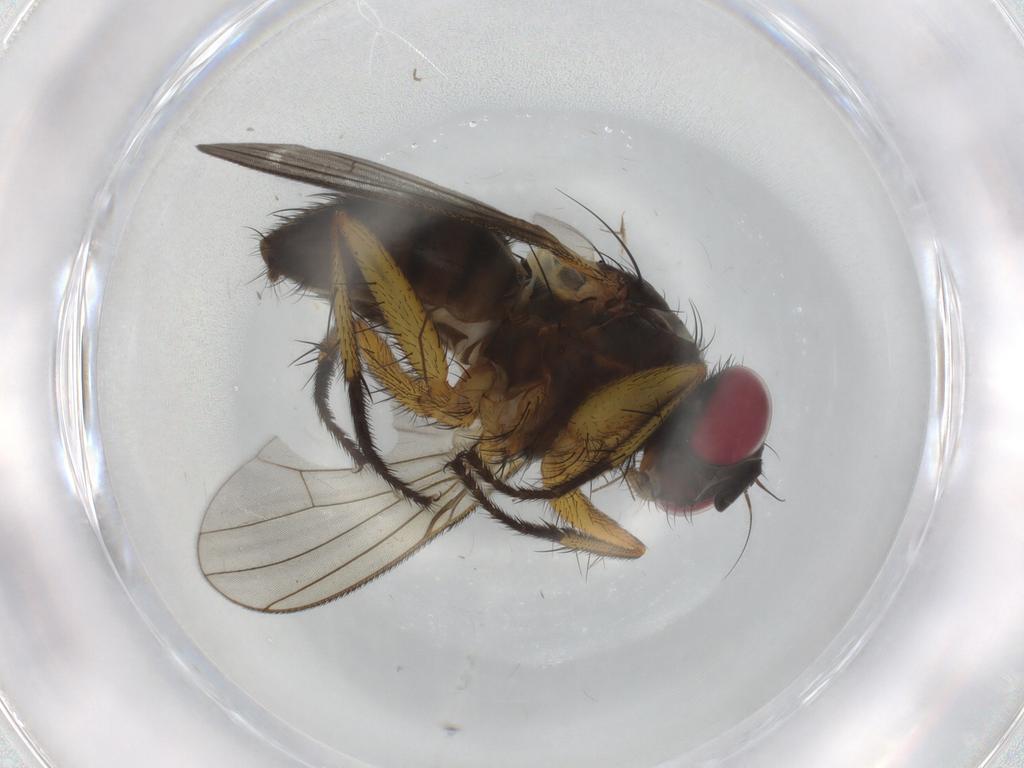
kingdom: Animalia
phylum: Arthropoda
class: Insecta
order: Diptera
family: Muscidae
